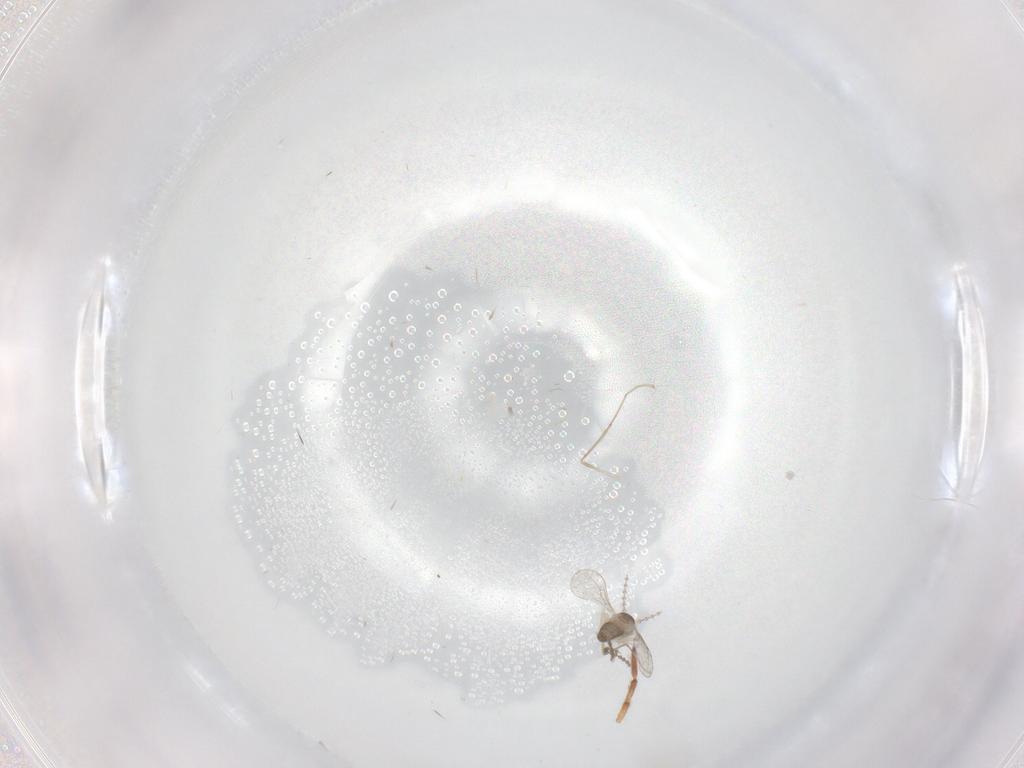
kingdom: Animalia
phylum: Arthropoda
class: Insecta
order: Diptera
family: Cecidomyiidae
